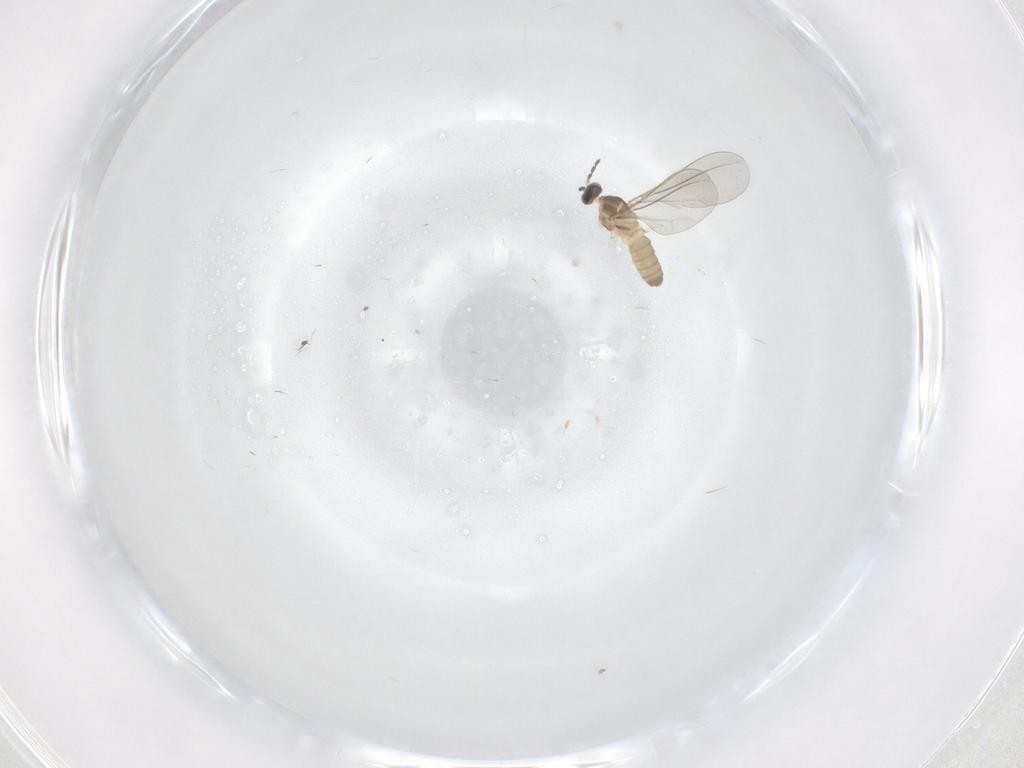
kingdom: Animalia
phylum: Arthropoda
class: Insecta
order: Diptera
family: Cecidomyiidae
